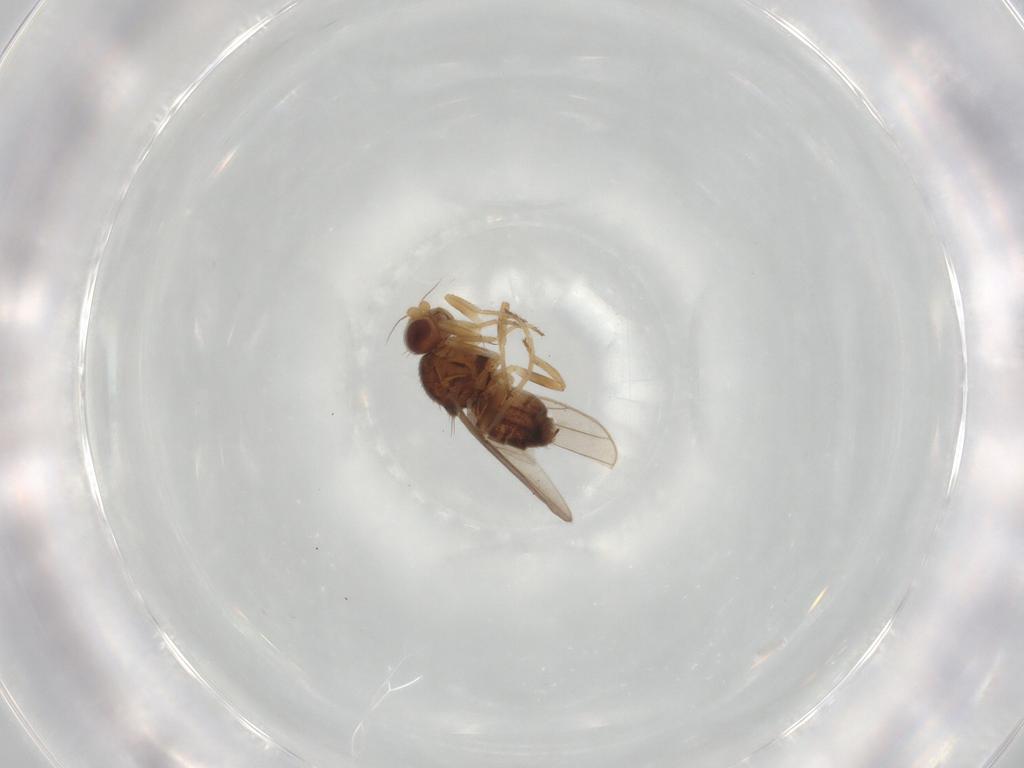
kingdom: Animalia
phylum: Arthropoda
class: Insecta
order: Diptera
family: Chloropidae
